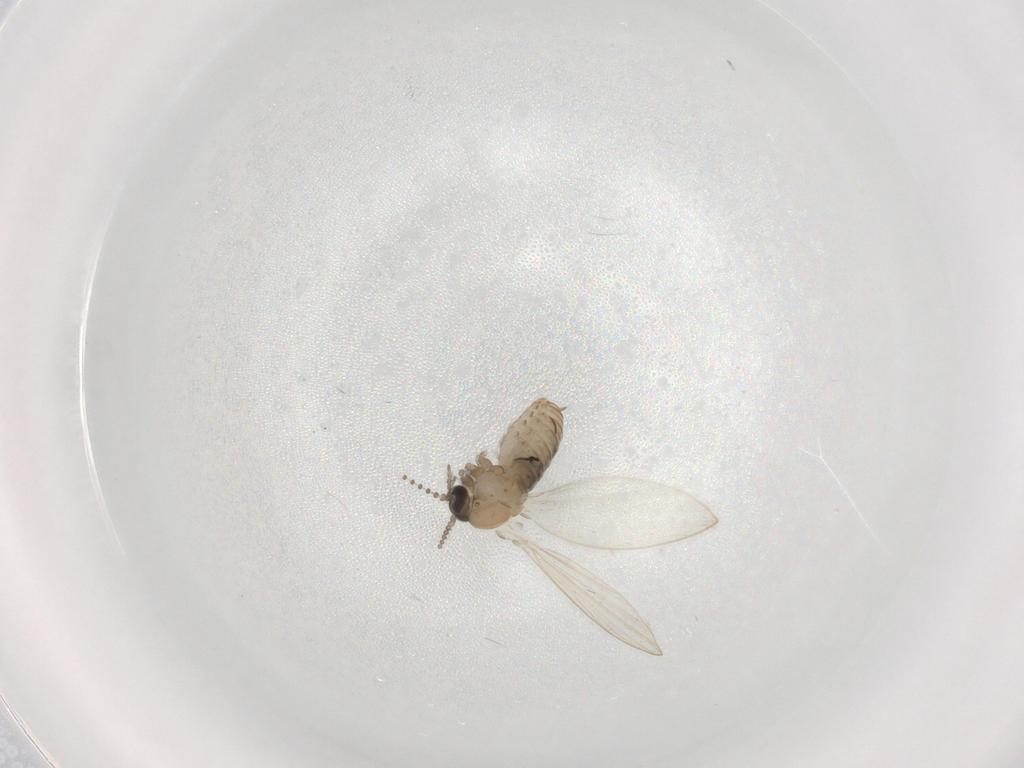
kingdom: Animalia
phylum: Arthropoda
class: Insecta
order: Diptera
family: Psychodidae
